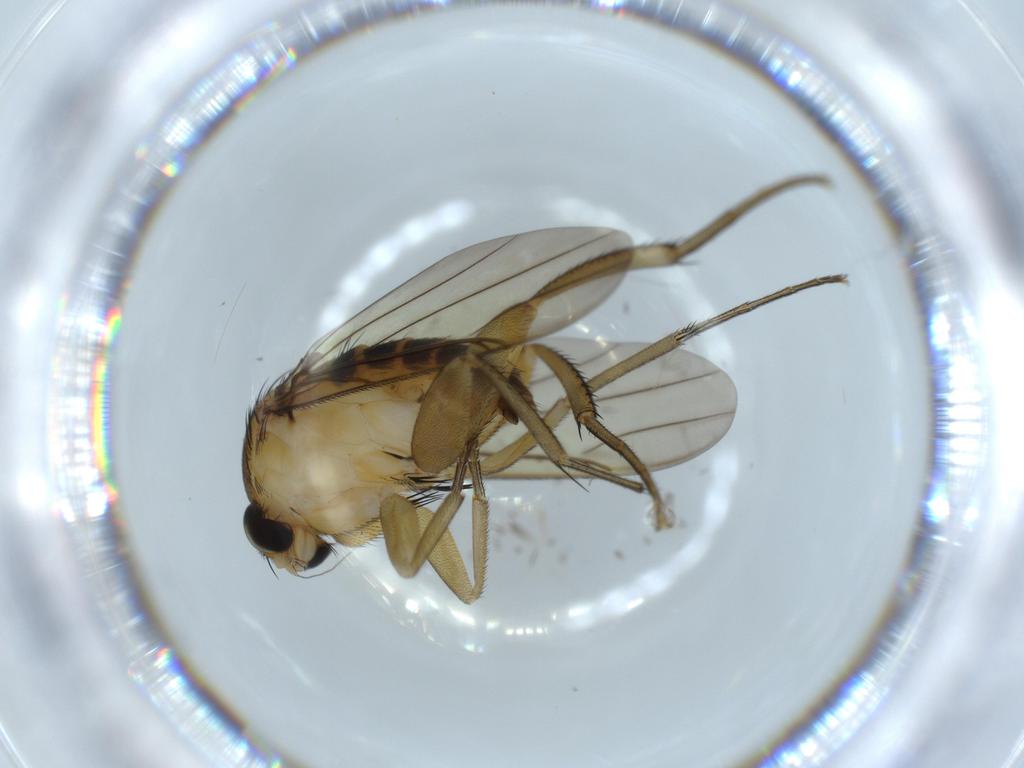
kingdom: Animalia
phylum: Arthropoda
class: Insecta
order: Diptera
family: Phoridae
